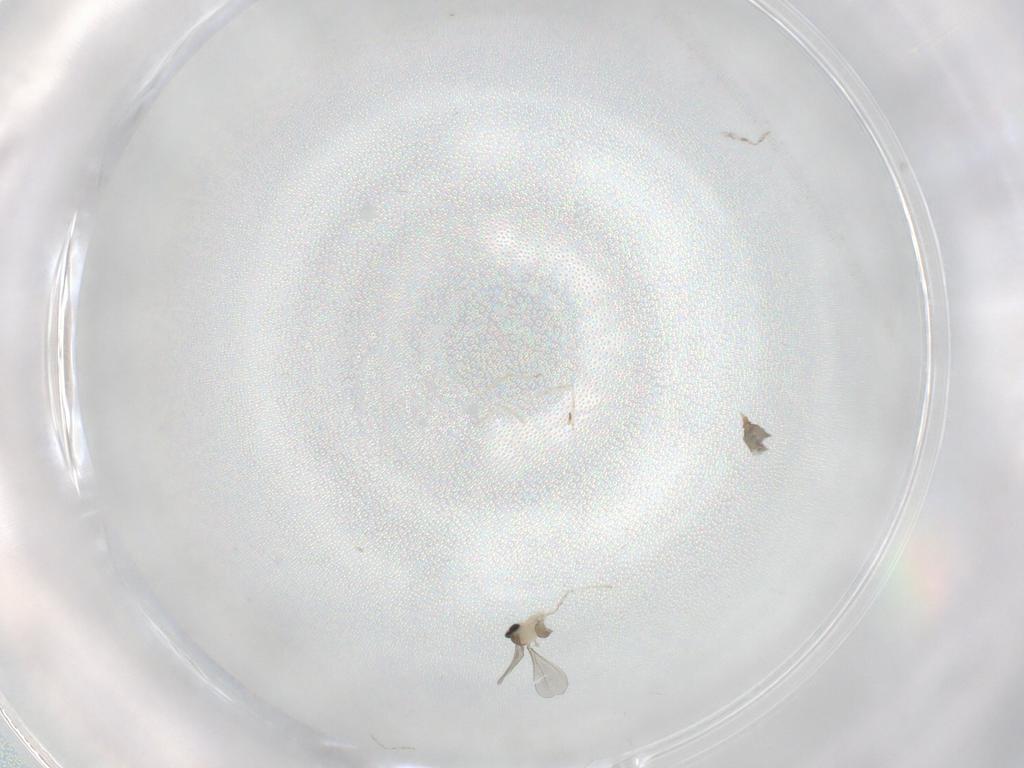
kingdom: Animalia
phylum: Arthropoda
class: Insecta
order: Diptera
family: Cecidomyiidae
